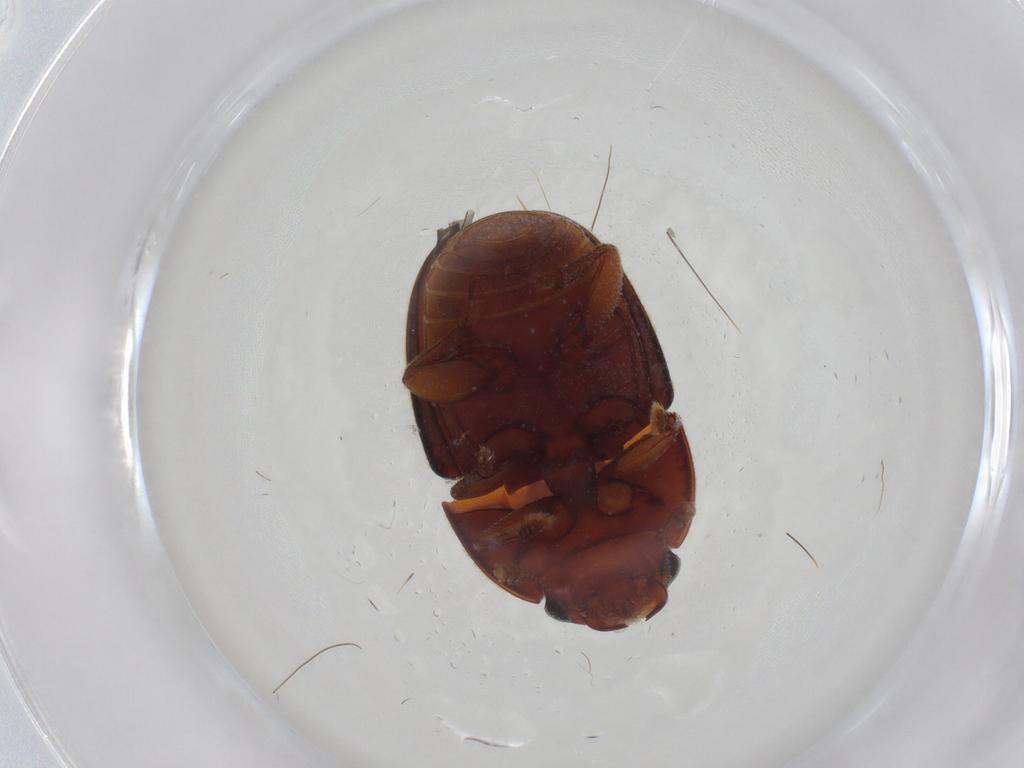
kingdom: Animalia
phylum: Arthropoda
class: Insecta
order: Coleoptera
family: Nitidulidae
